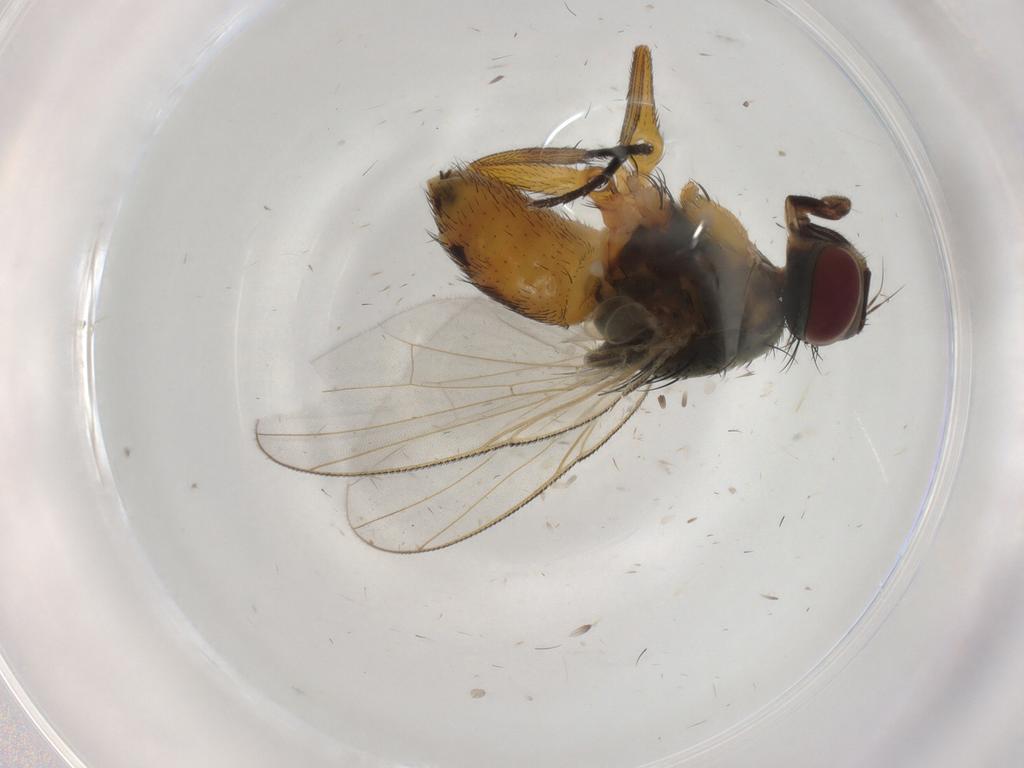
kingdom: Animalia
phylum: Arthropoda
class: Insecta
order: Diptera
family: Muscidae
